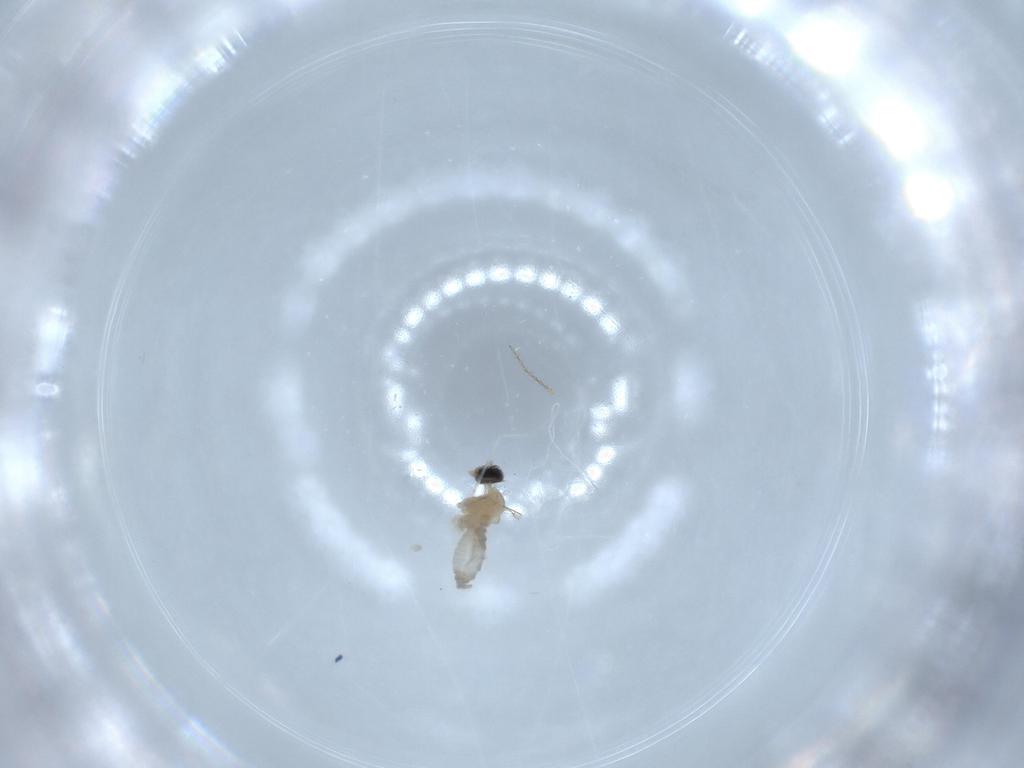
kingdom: Animalia
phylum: Arthropoda
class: Insecta
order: Diptera
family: Cecidomyiidae
